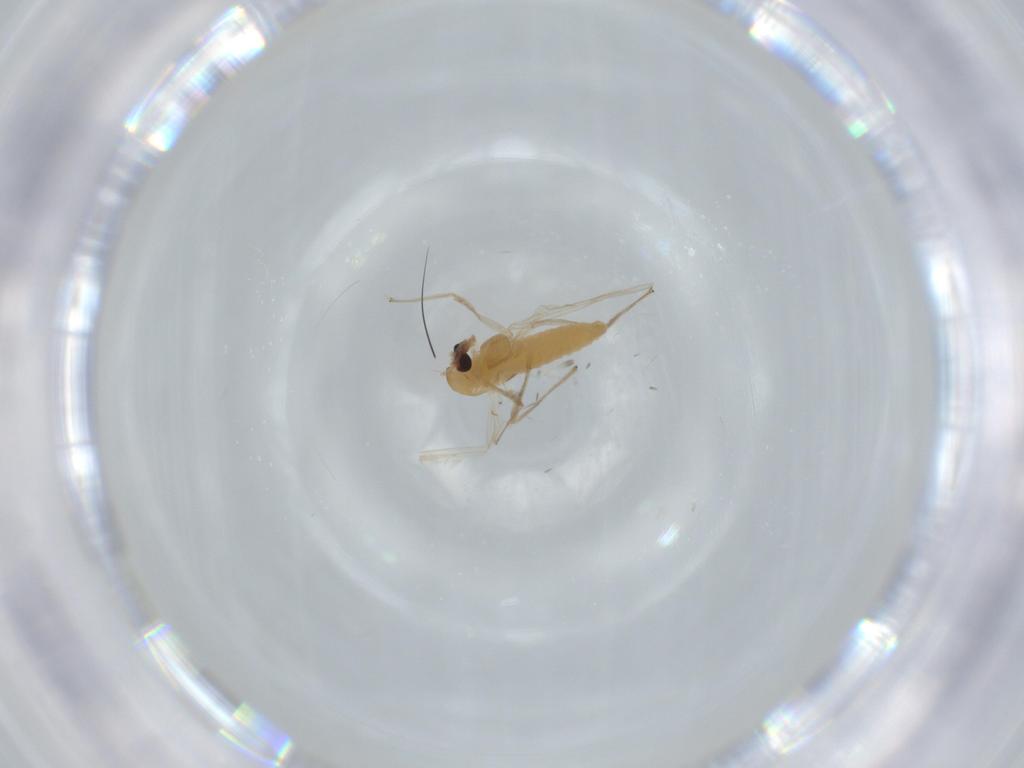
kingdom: Animalia
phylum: Arthropoda
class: Insecta
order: Diptera
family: Chironomidae
